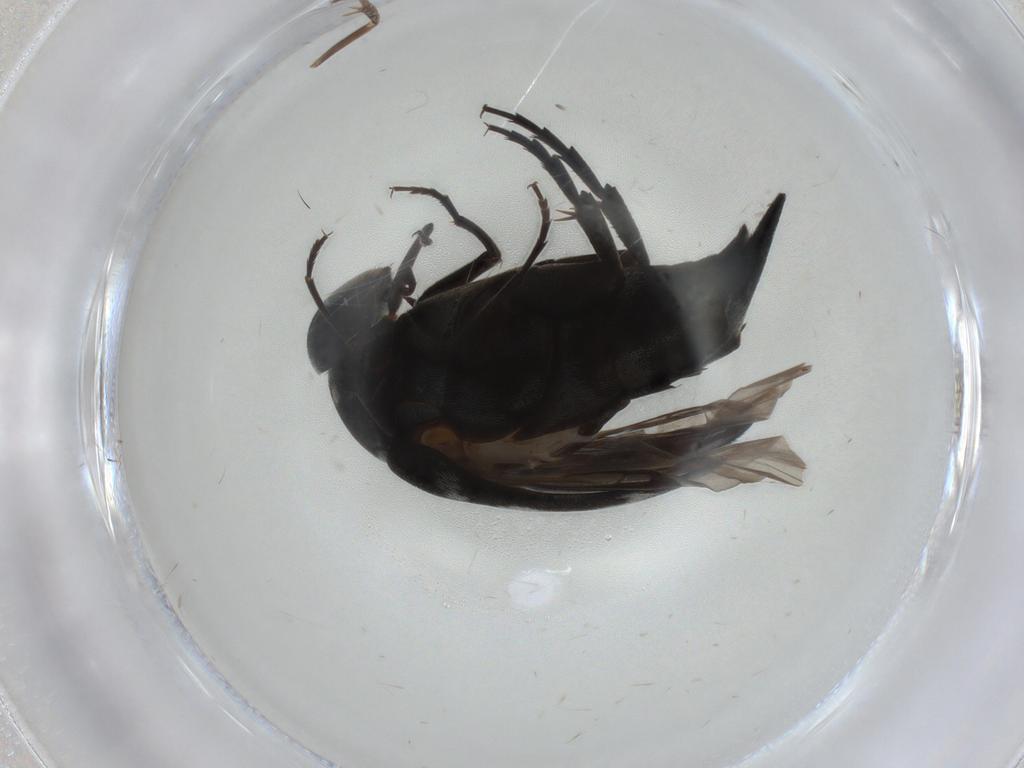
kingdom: Animalia
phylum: Arthropoda
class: Insecta
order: Coleoptera
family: Mordellidae
